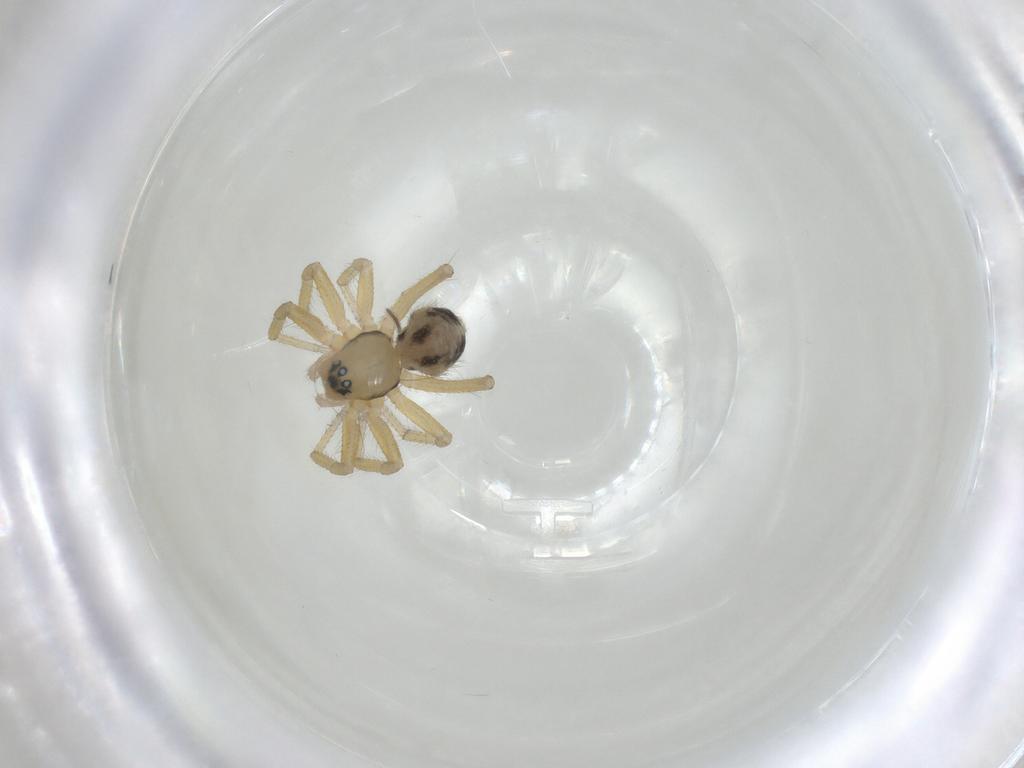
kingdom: Animalia
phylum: Arthropoda
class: Arachnida
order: Araneae
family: Linyphiidae
